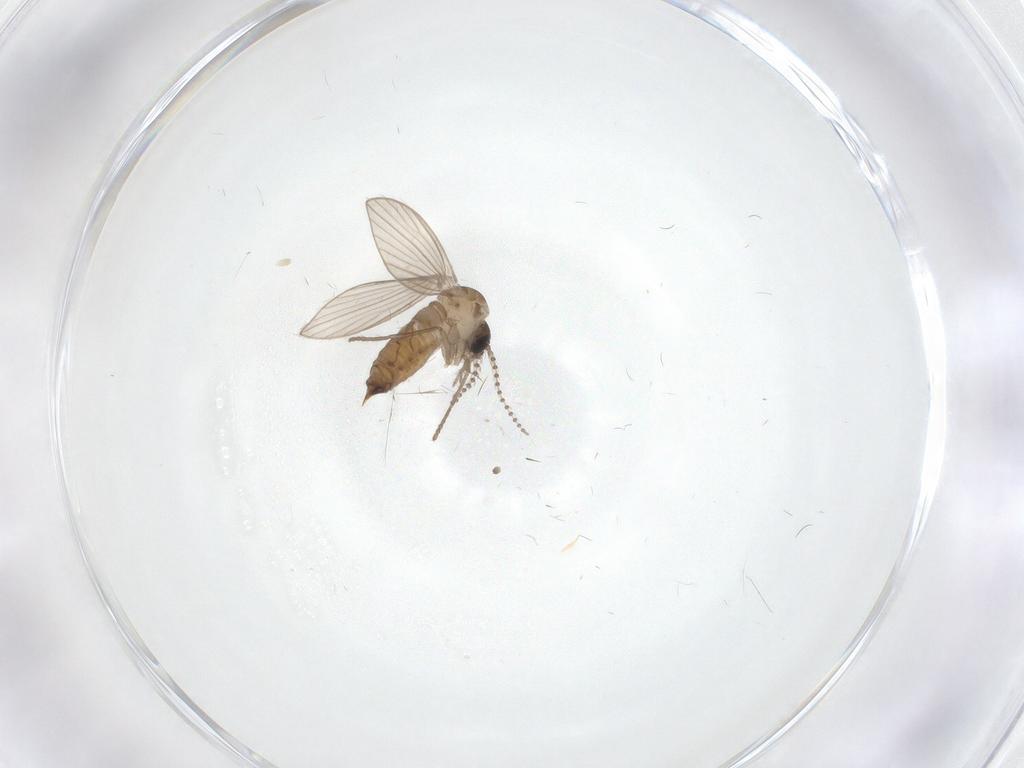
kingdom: Animalia
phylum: Arthropoda
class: Insecta
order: Diptera
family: Psychodidae
